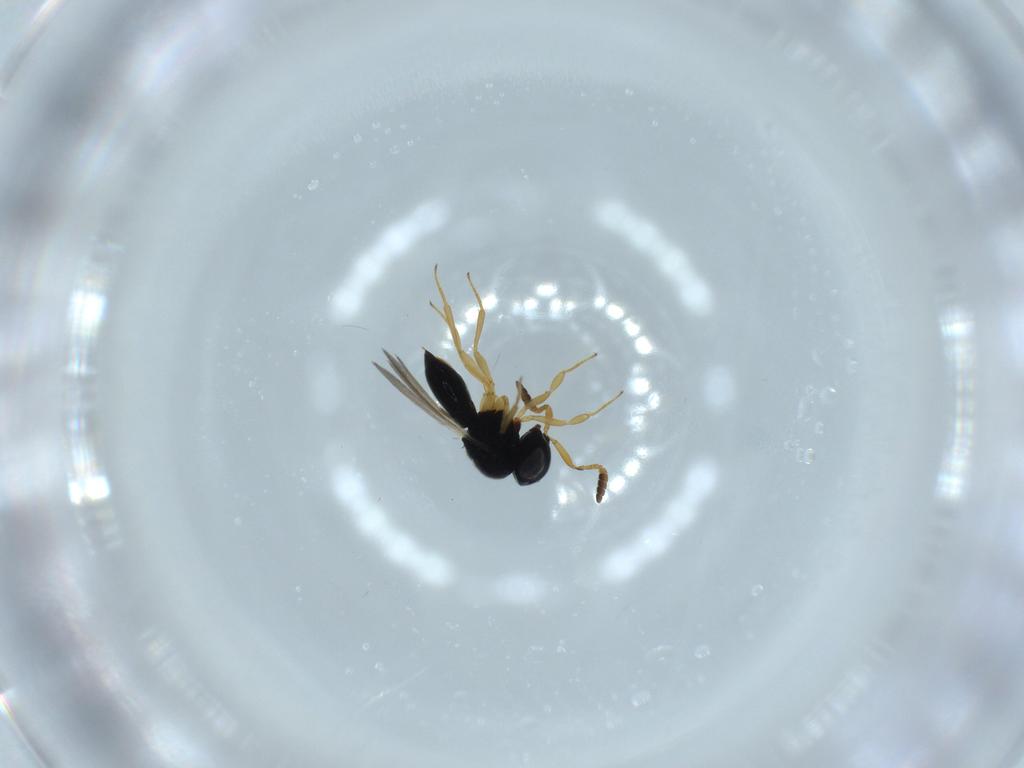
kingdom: Animalia
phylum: Arthropoda
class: Insecta
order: Hymenoptera
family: Scelionidae
